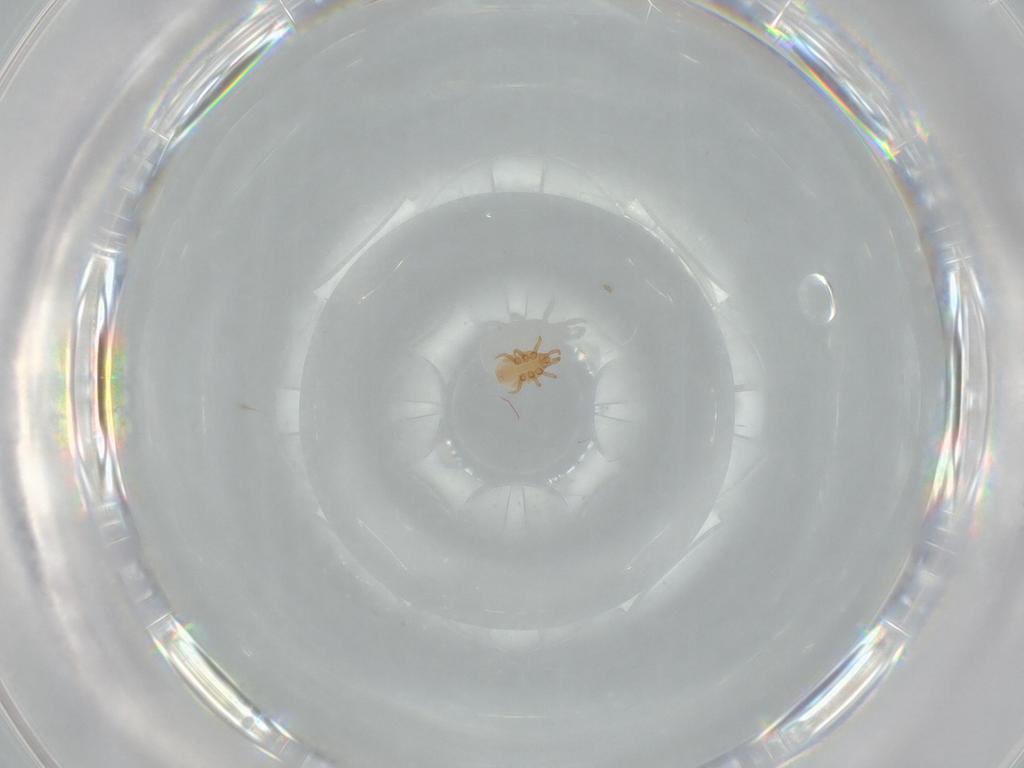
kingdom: Animalia
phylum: Arthropoda
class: Arachnida
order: Mesostigmata
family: Dinychidae
